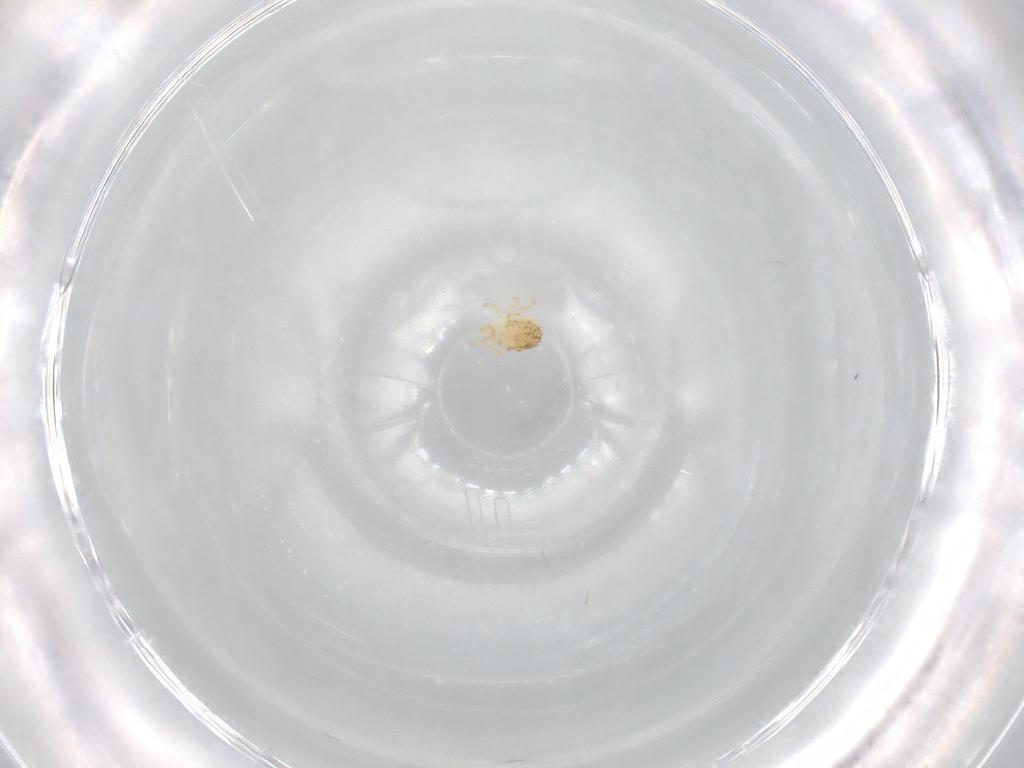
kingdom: Animalia
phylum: Arthropoda
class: Arachnida
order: Mesostigmata
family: Phytoseiidae
